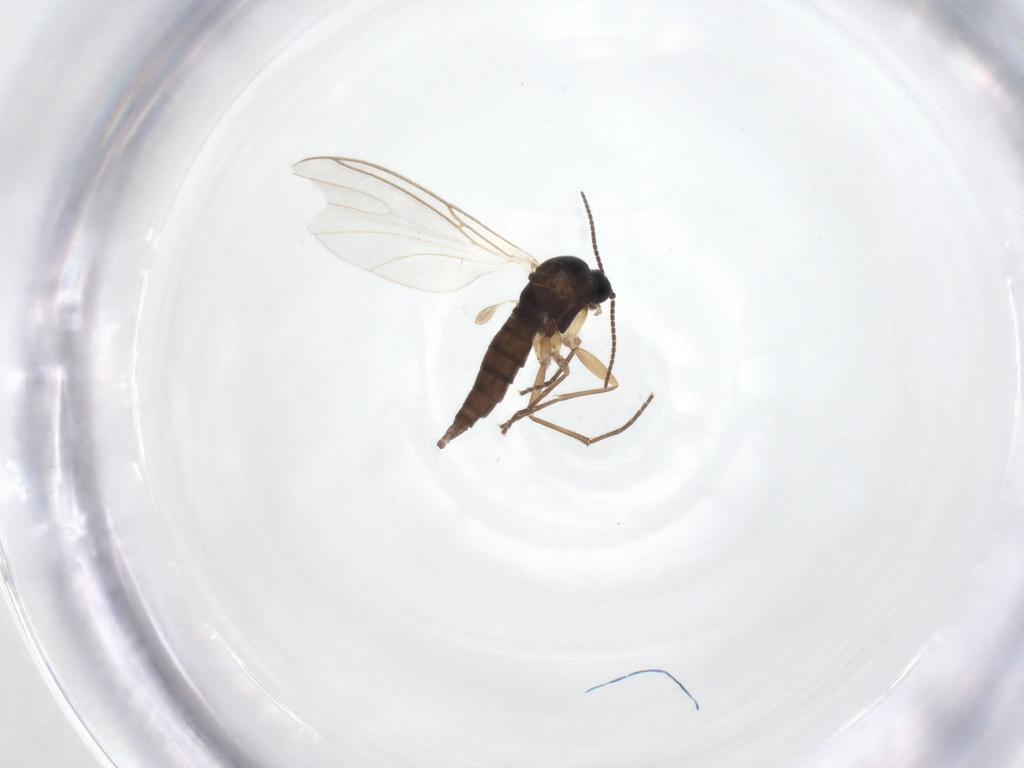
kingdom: Animalia
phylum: Arthropoda
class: Insecta
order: Diptera
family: Sciaridae
